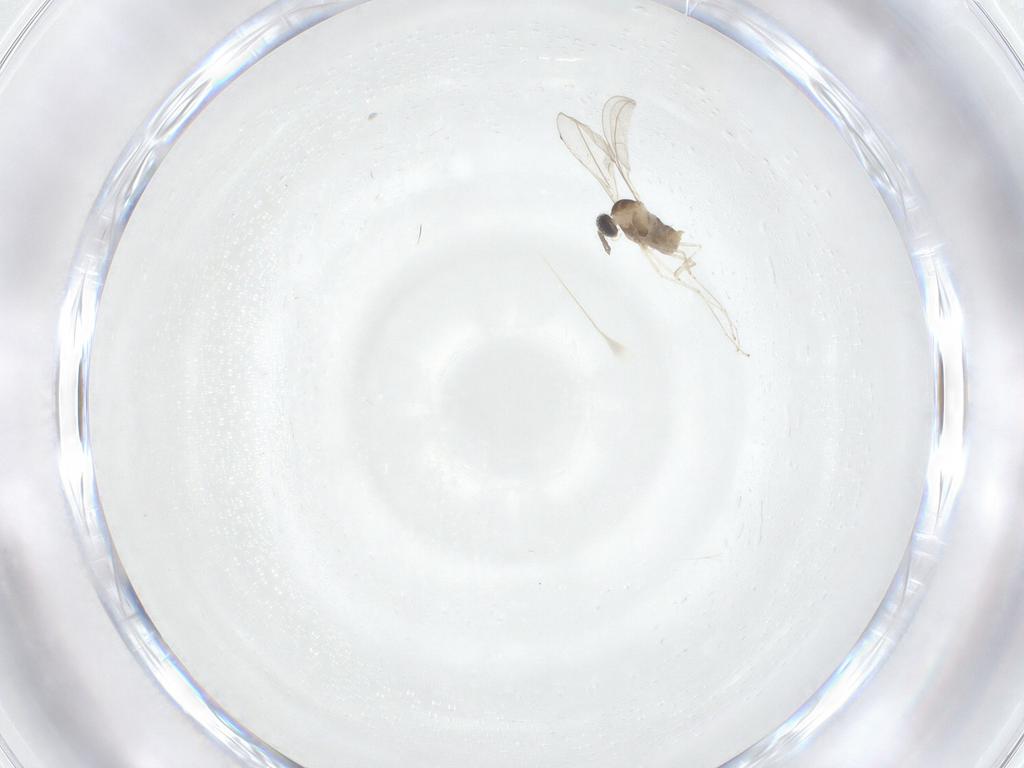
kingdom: Animalia
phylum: Arthropoda
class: Insecta
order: Diptera
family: Cecidomyiidae
